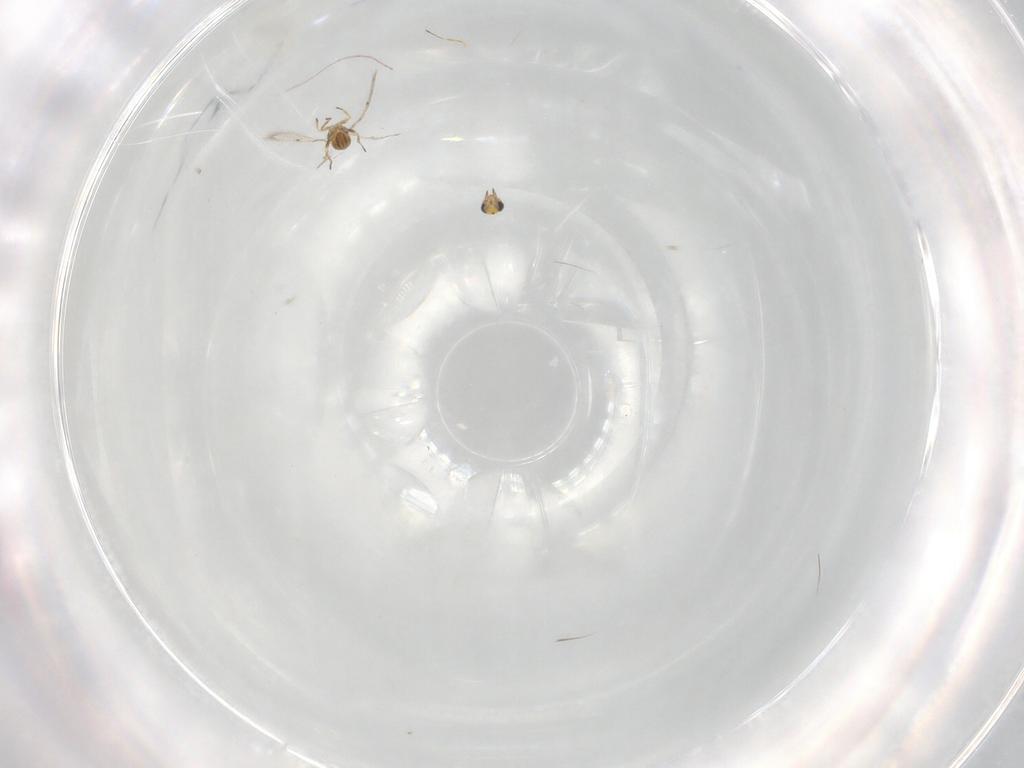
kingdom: Animalia
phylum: Arthropoda
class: Insecta
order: Hymenoptera
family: Trichogrammatidae
